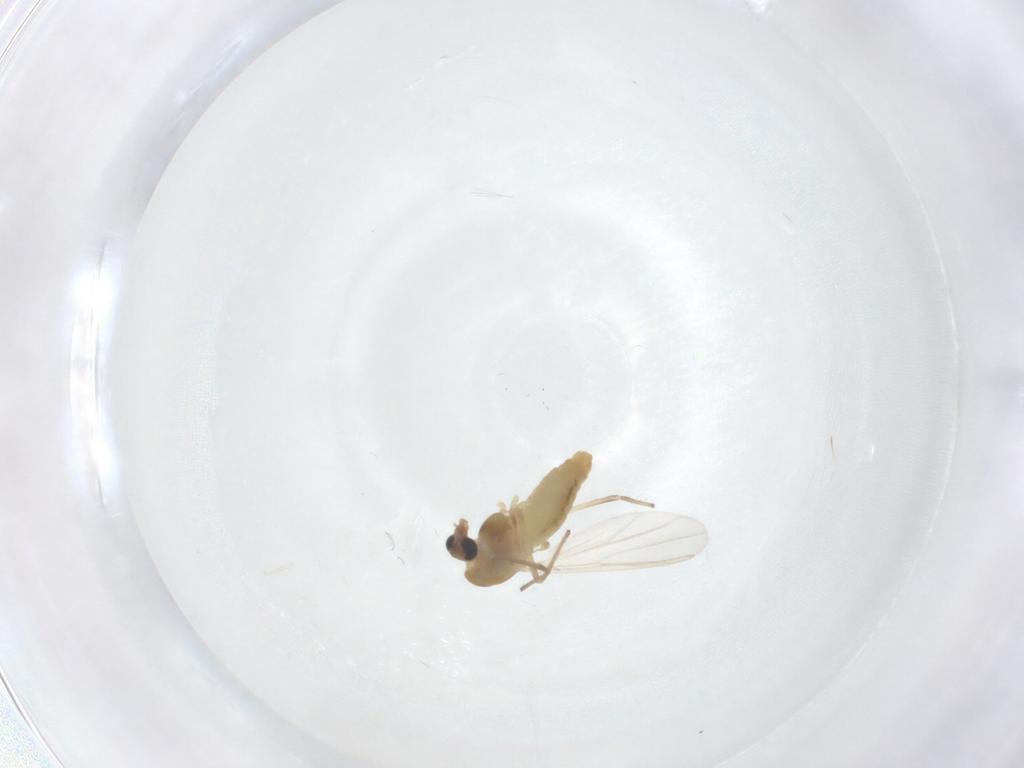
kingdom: Animalia
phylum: Arthropoda
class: Insecta
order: Diptera
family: Chironomidae
